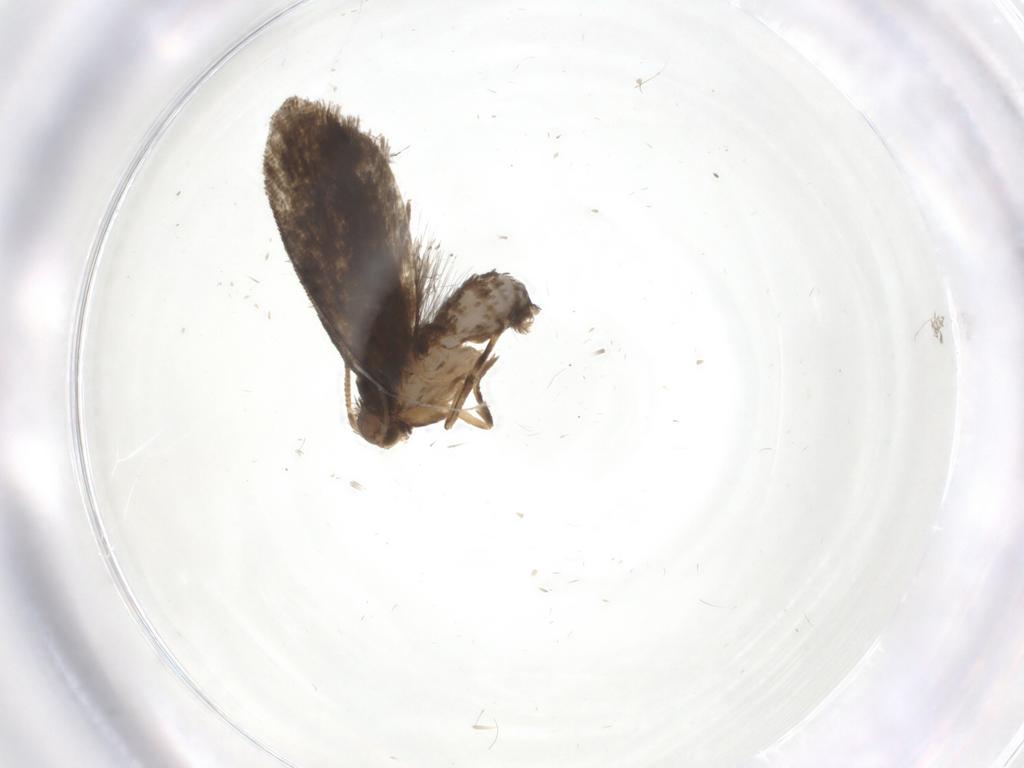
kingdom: Animalia
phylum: Arthropoda
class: Insecta
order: Lepidoptera
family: Tineidae
